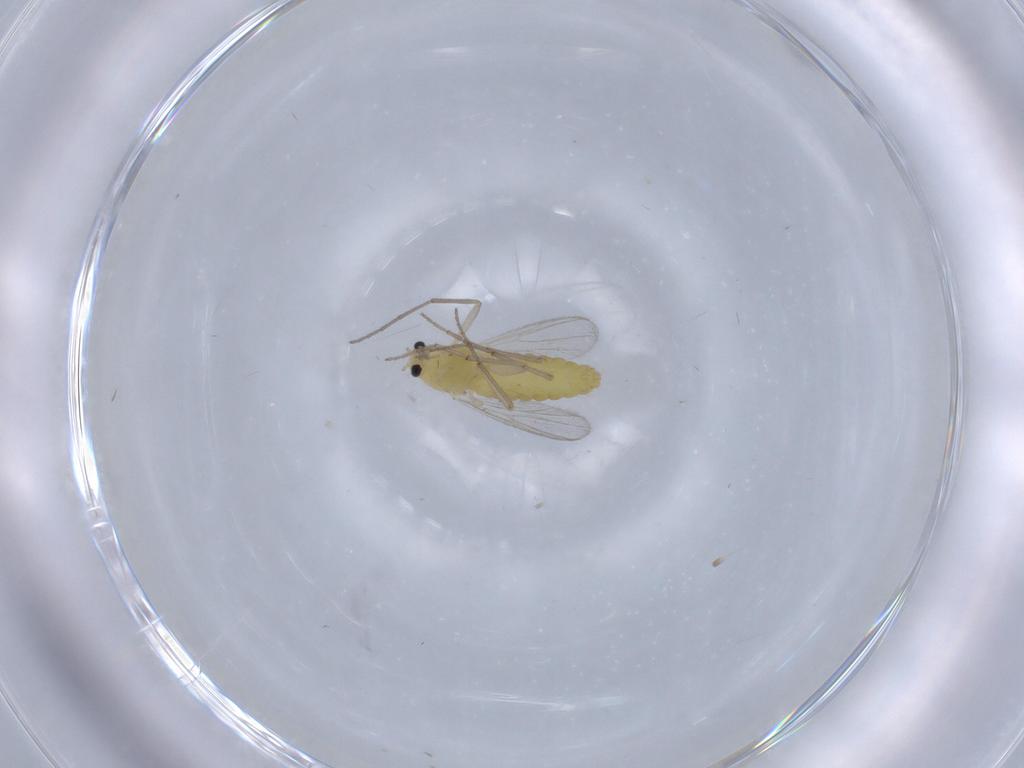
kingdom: Animalia
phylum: Arthropoda
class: Insecta
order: Diptera
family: Chironomidae
